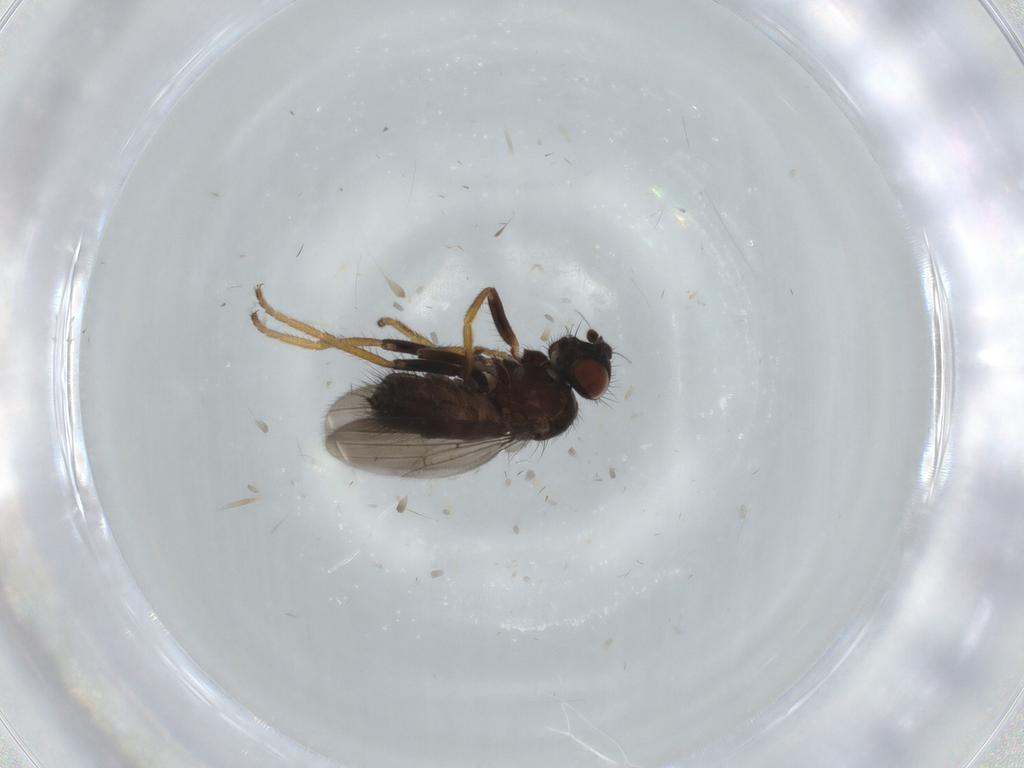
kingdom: Animalia
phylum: Arthropoda
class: Insecta
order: Diptera
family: Milichiidae
